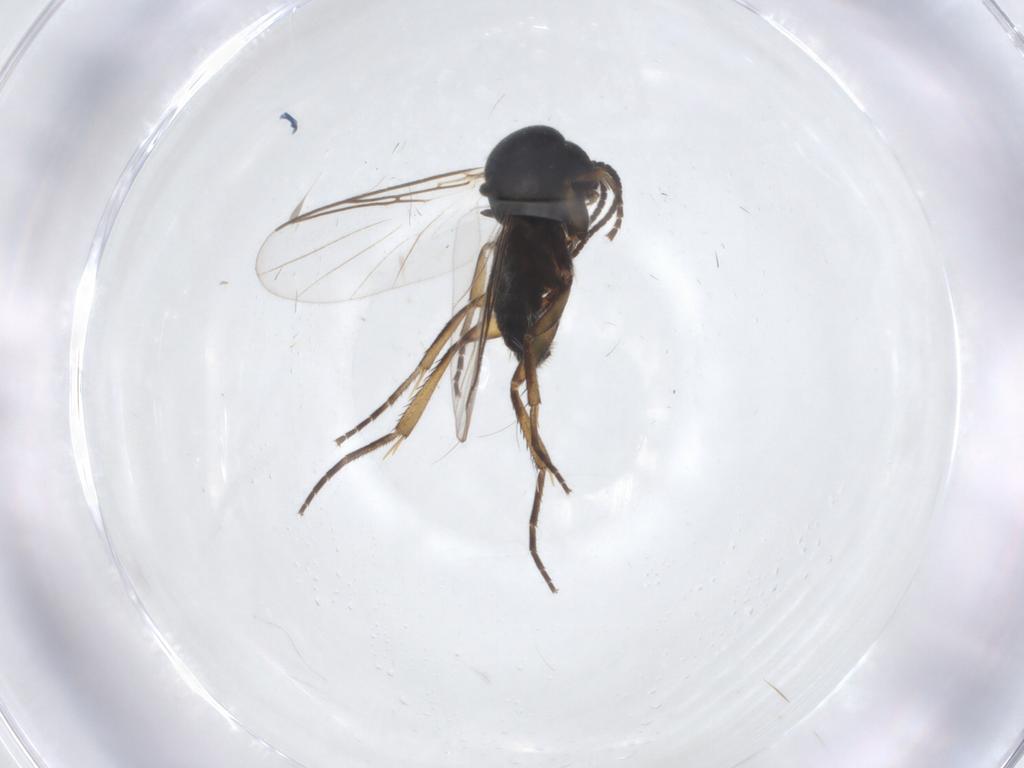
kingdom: Animalia
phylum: Arthropoda
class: Insecta
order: Diptera
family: Mycetophilidae
